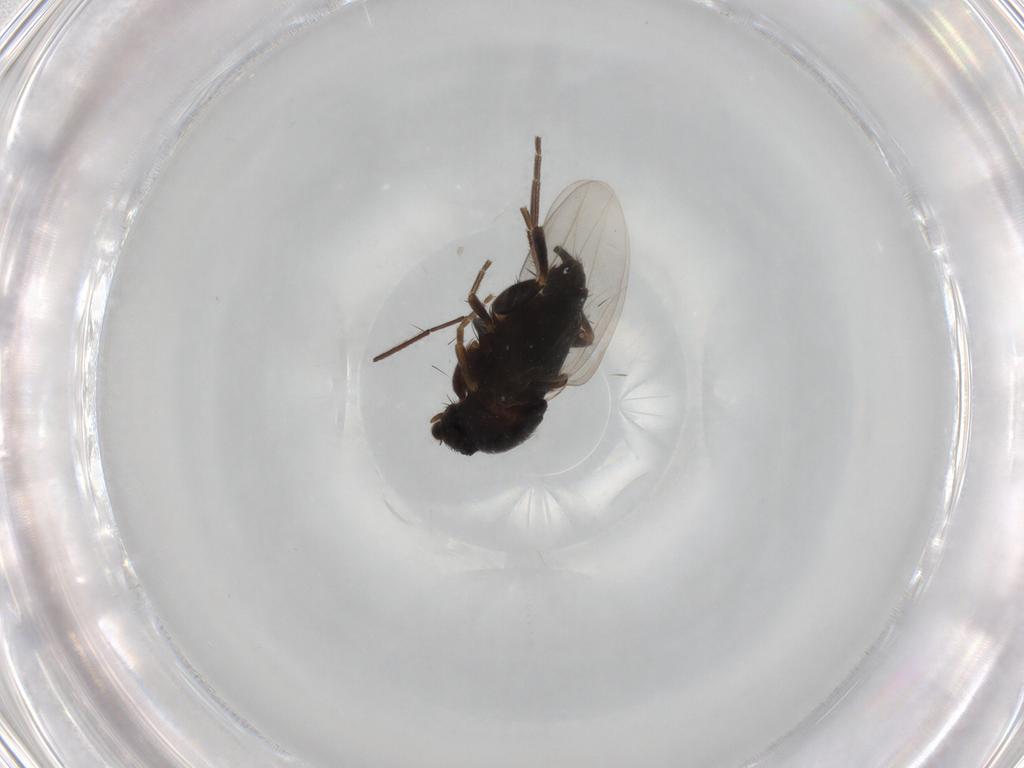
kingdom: Animalia
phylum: Arthropoda
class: Insecta
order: Diptera
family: Phoridae
